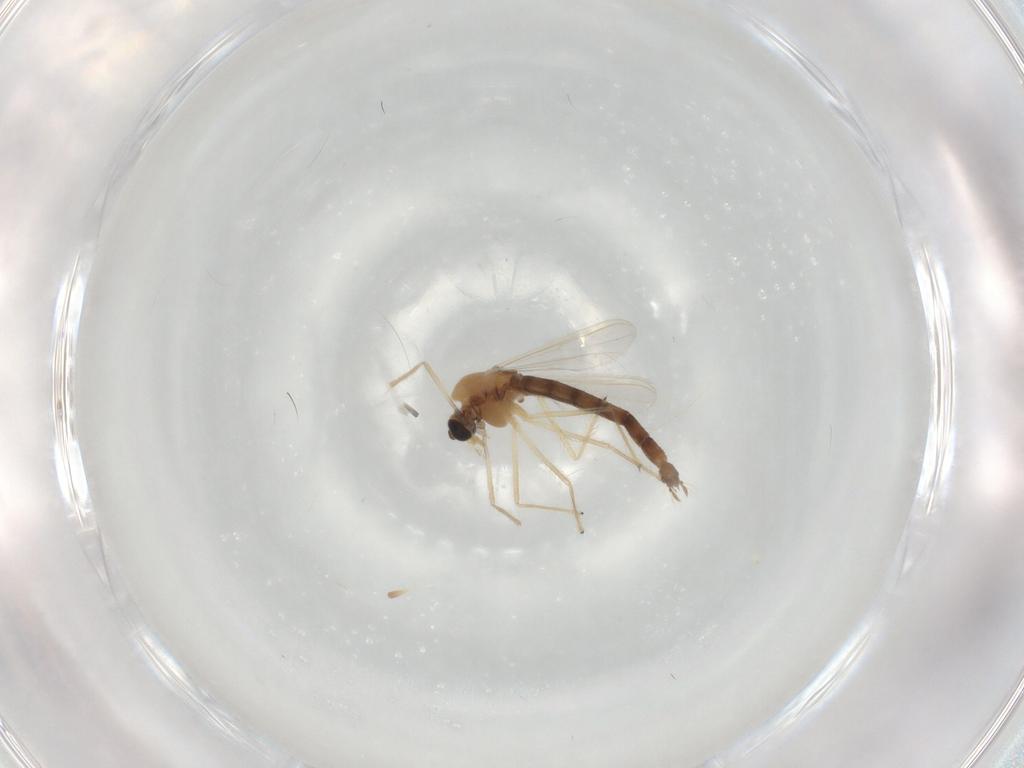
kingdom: Animalia
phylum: Arthropoda
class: Insecta
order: Diptera
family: Chironomidae
